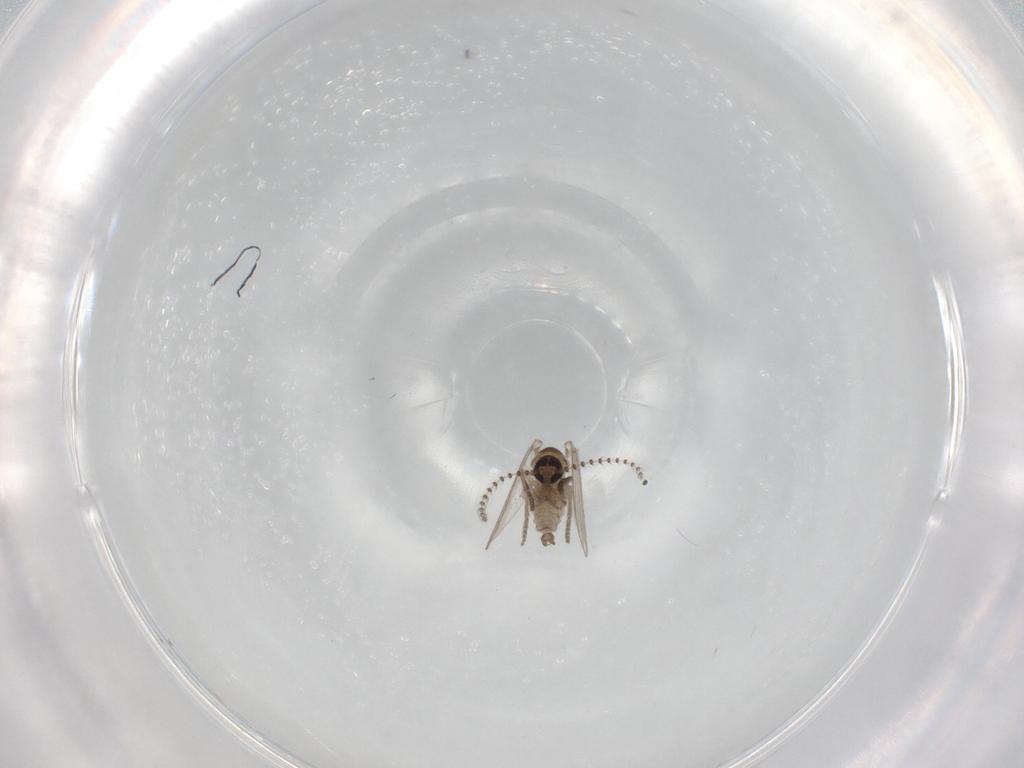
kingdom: Animalia
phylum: Arthropoda
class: Insecta
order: Diptera
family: Psychodidae
